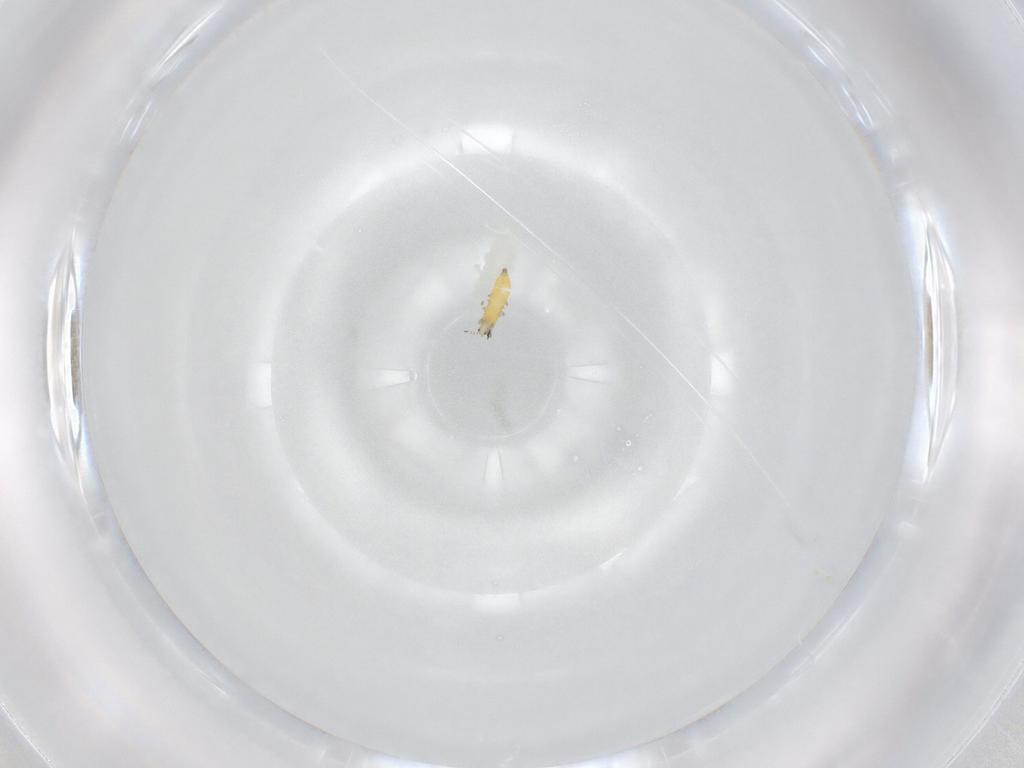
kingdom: Animalia
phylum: Arthropoda
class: Insecta
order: Thysanoptera
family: Thripidae
